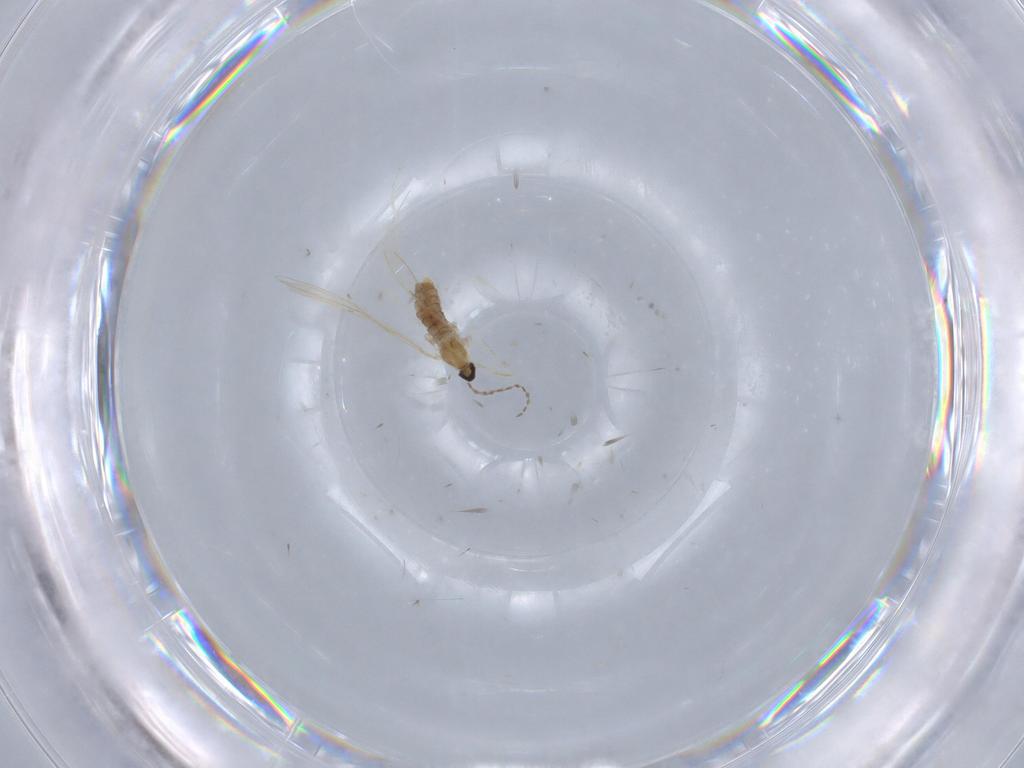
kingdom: Animalia
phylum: Arthropoda
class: Insecta
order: Diptera
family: Cecidomyiidae
